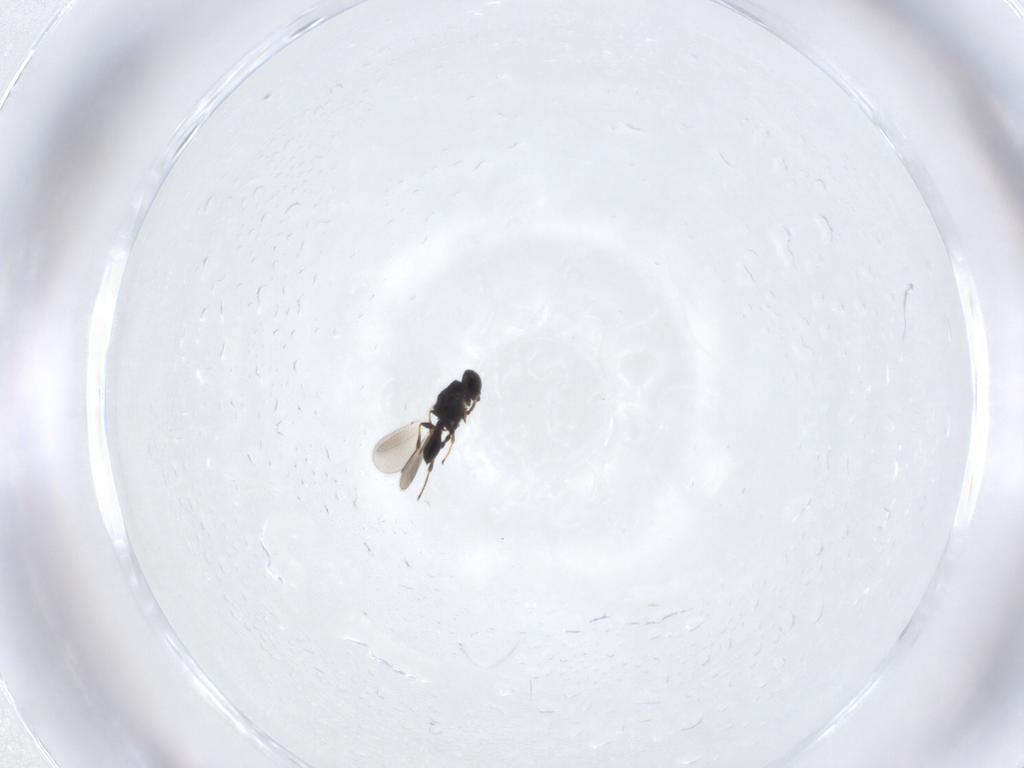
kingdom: Animalia
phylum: Arthropoda
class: Insecta
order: Hymenoptera
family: Platygastridae
